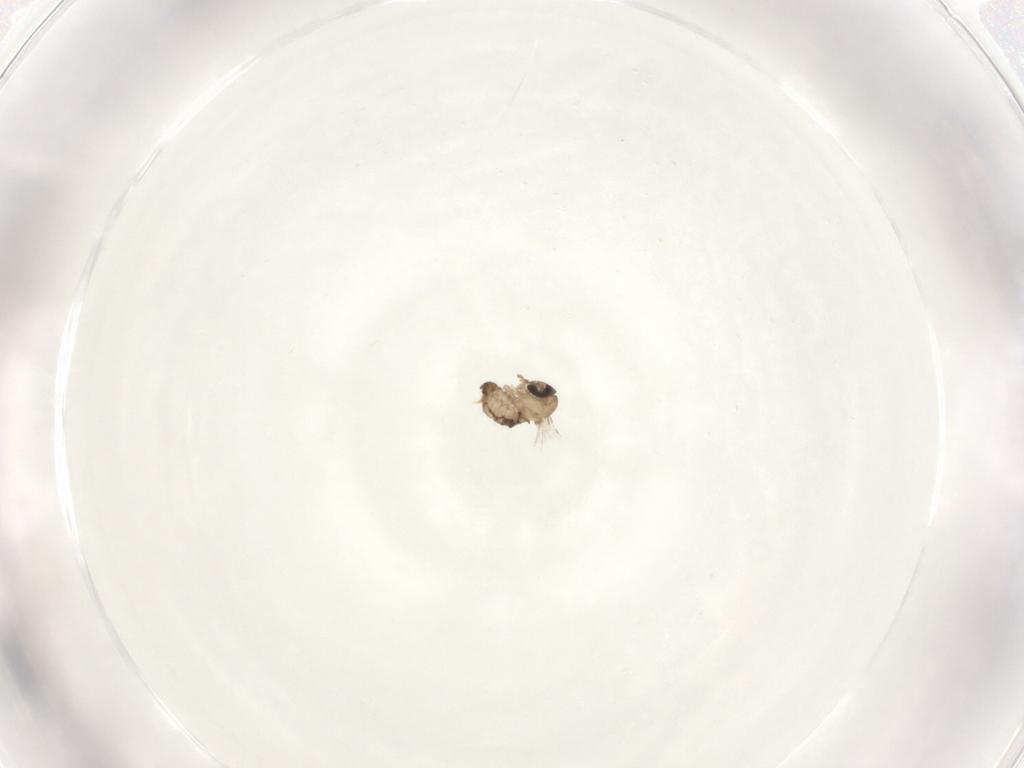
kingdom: Animalia
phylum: Arthropoda
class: Insecta
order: Diptera
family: Psychodidae
